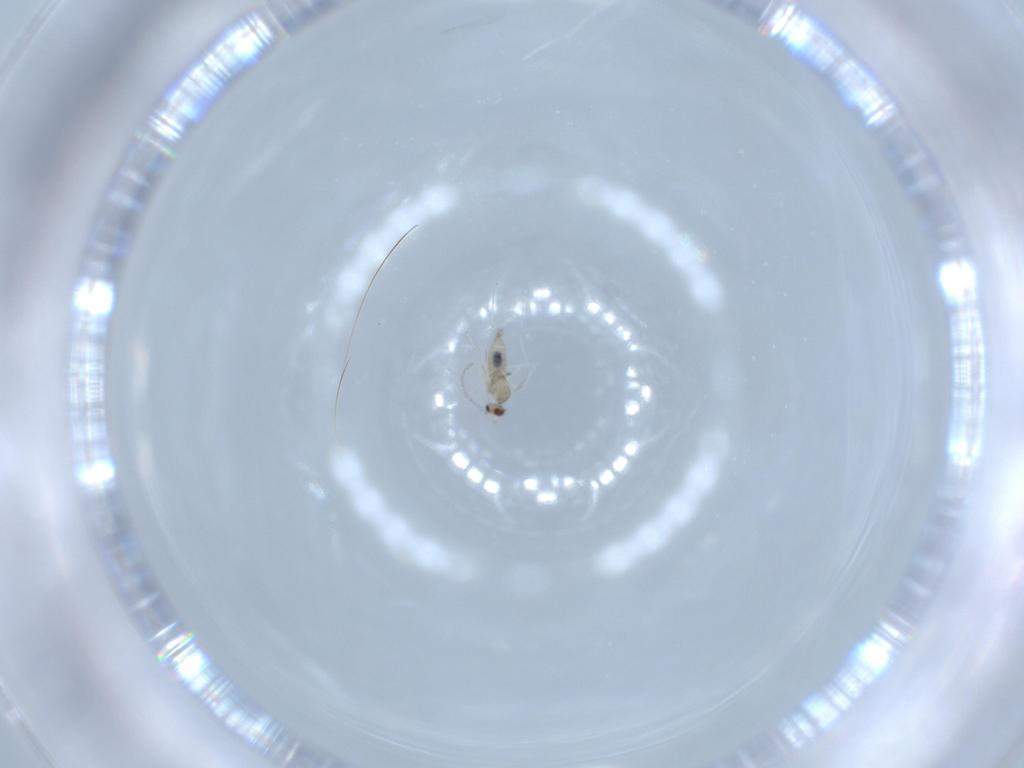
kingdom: Animalia
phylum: Arthropoda
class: Insecta
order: Diptera
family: Cecidomyiidae
